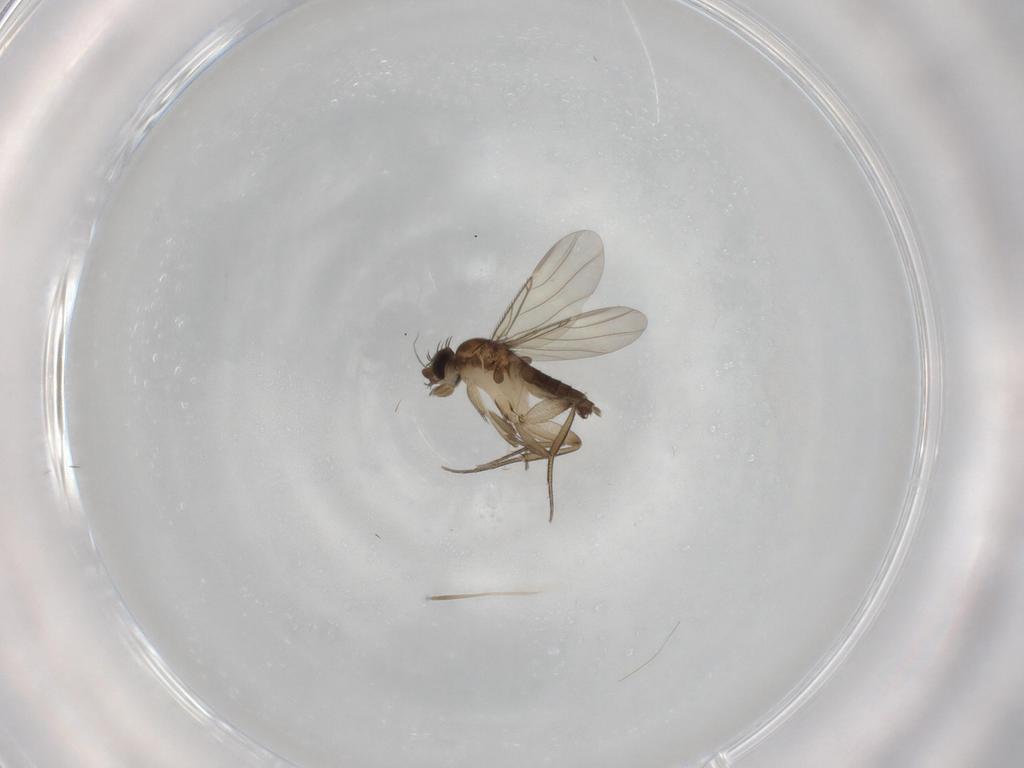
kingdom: Animalia
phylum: Arthropoda
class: Insecta
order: Diptera
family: Phoridae
